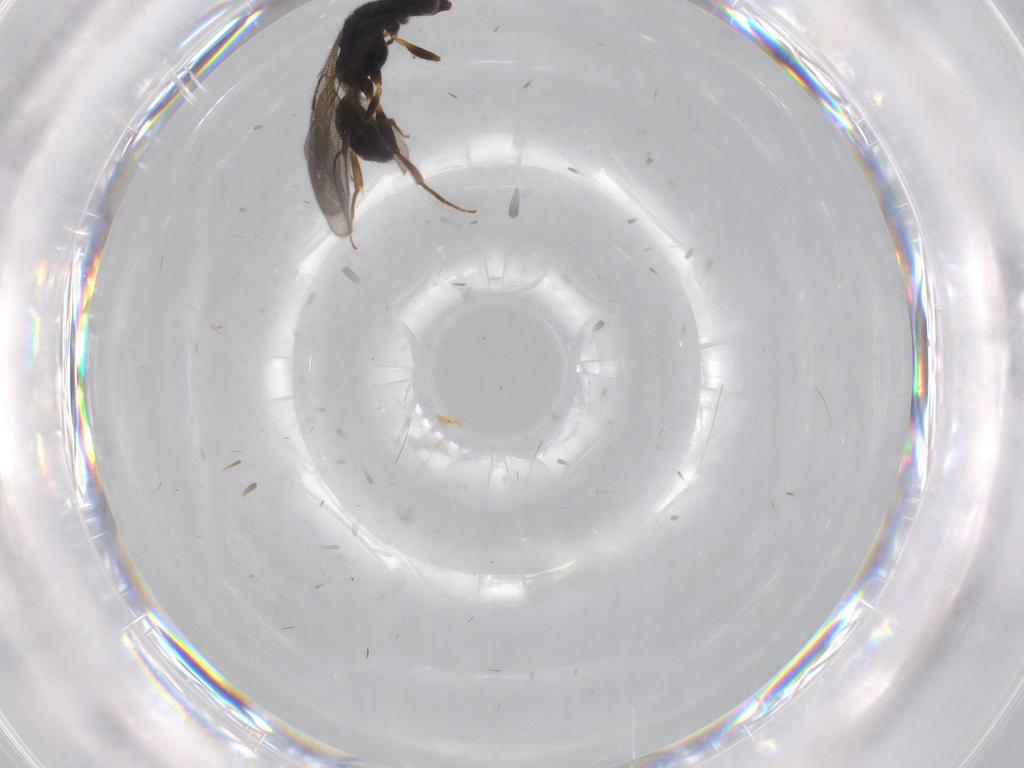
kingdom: Animalia
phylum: Arthropoda
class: Insecta
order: Hymenoptera
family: Bethylidae
